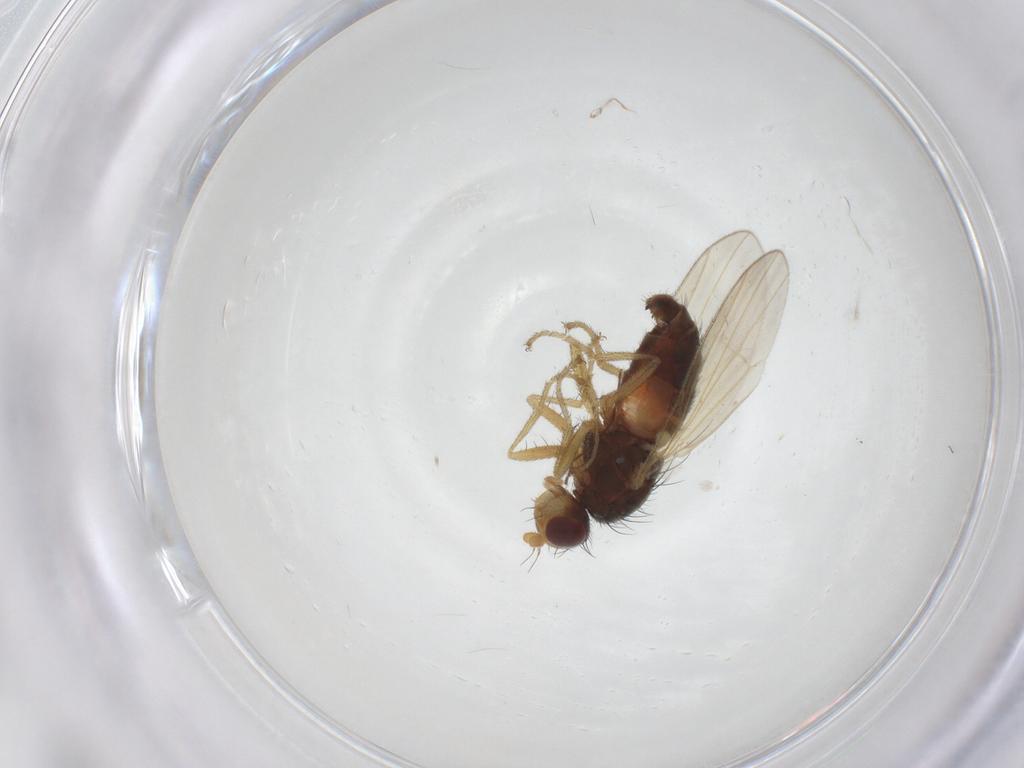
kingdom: Animalia
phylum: Arthropoda
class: Insecta
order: Diptera
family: Heleomyzidae
